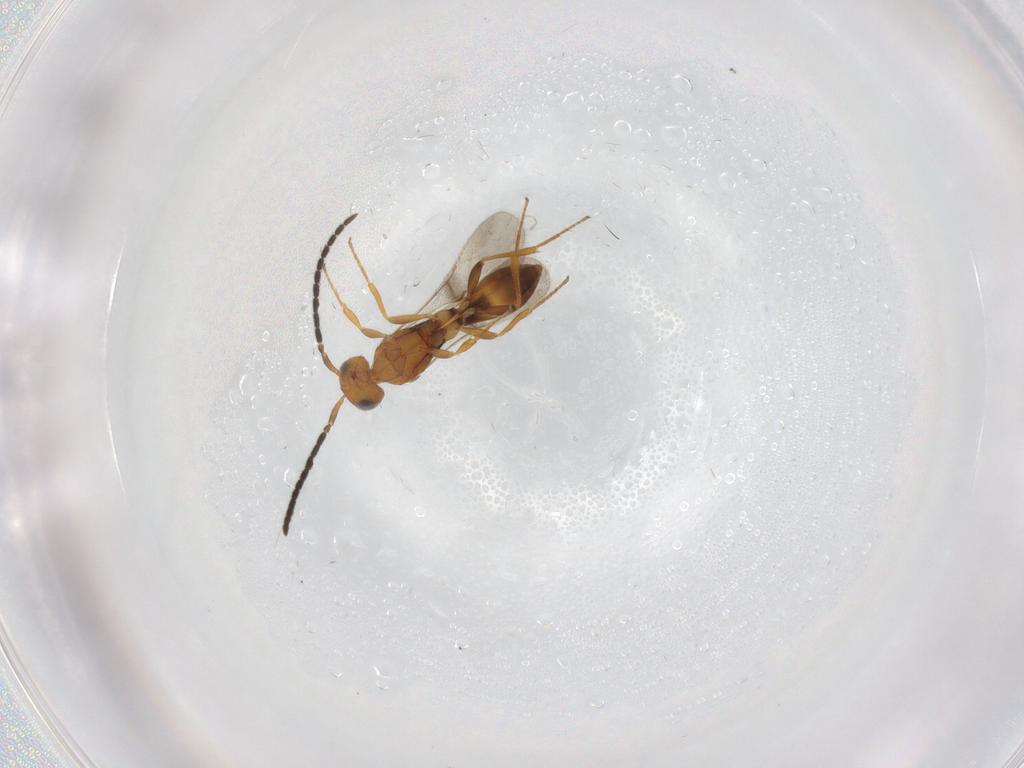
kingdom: Animalia
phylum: Arthropoda
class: Insecta
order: Hymenoptera
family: Scelionidae
